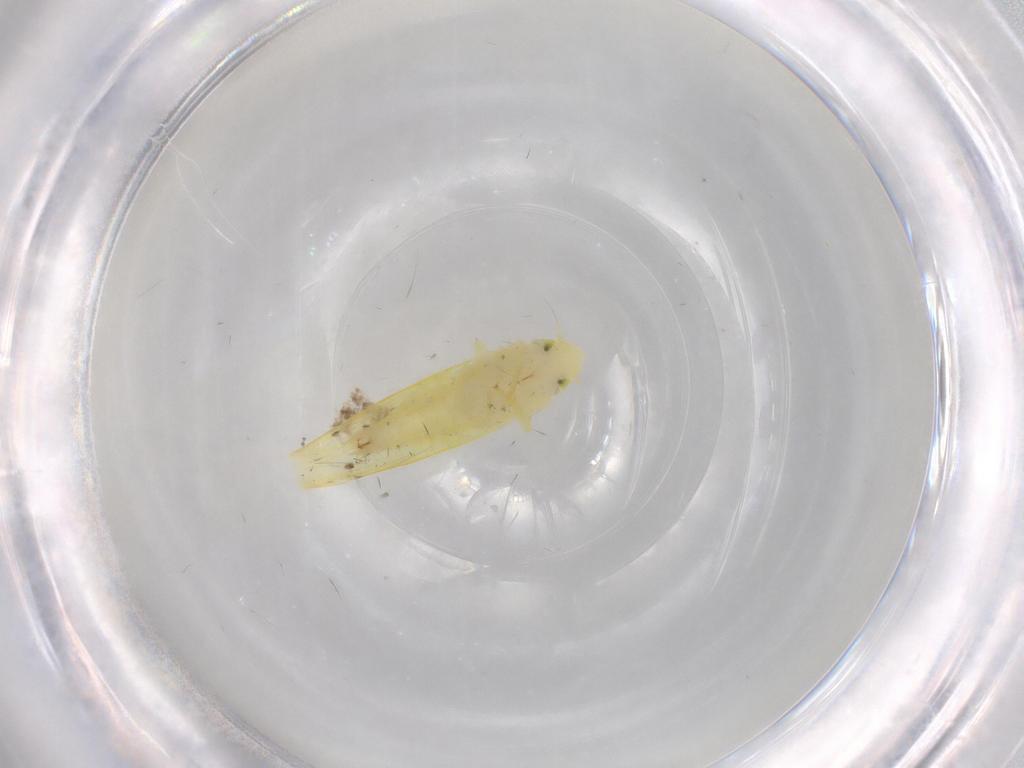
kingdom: Animalia
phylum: Arthropoda
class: Insecta
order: Hemiptera
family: Cicadellidae
